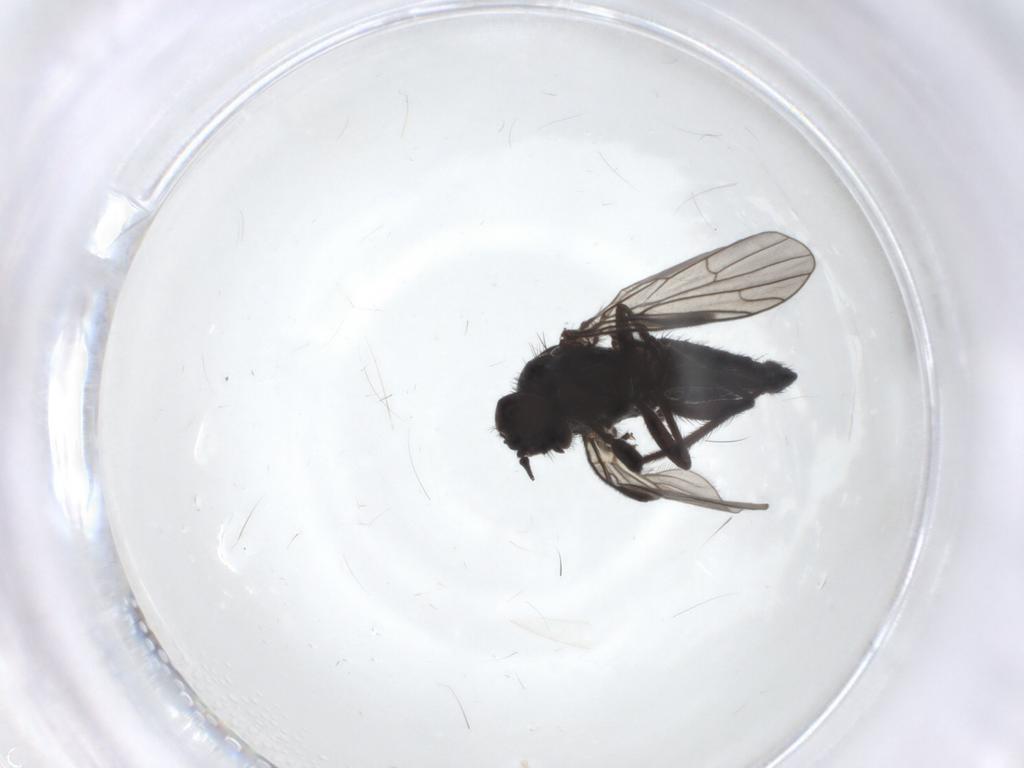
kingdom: Animalia
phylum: Arthropoda
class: Insecta
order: Diptera
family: Empididae
